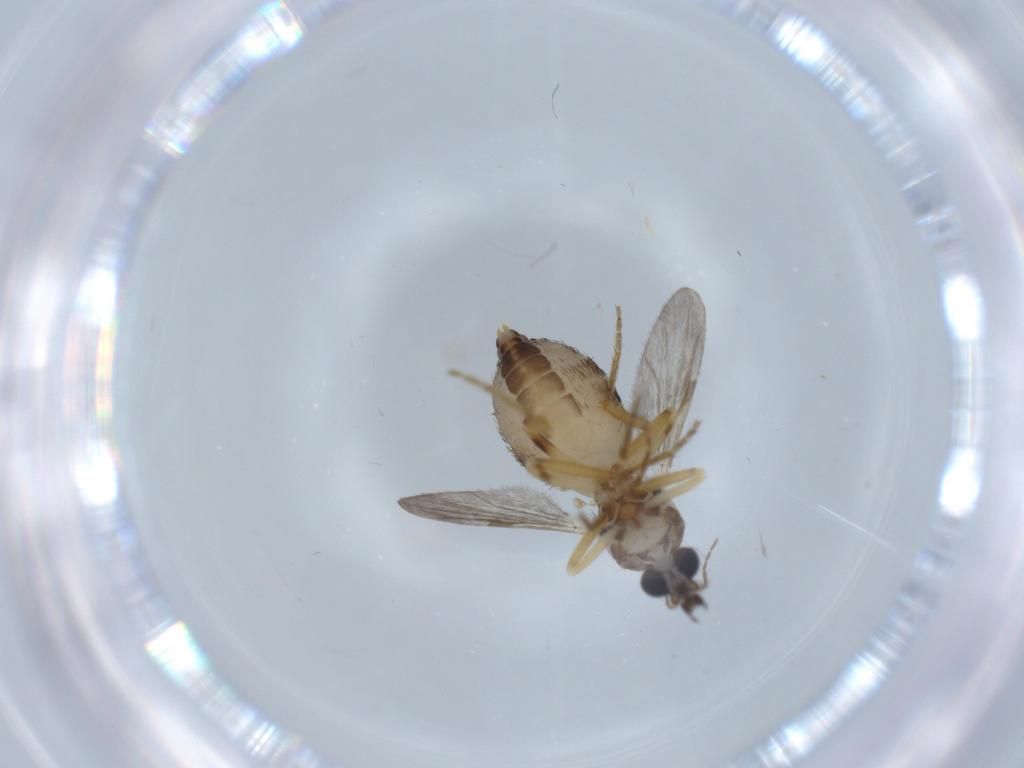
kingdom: Animalia
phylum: Arthropoda
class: Insecta
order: Diptera
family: Ceratopogonidae
